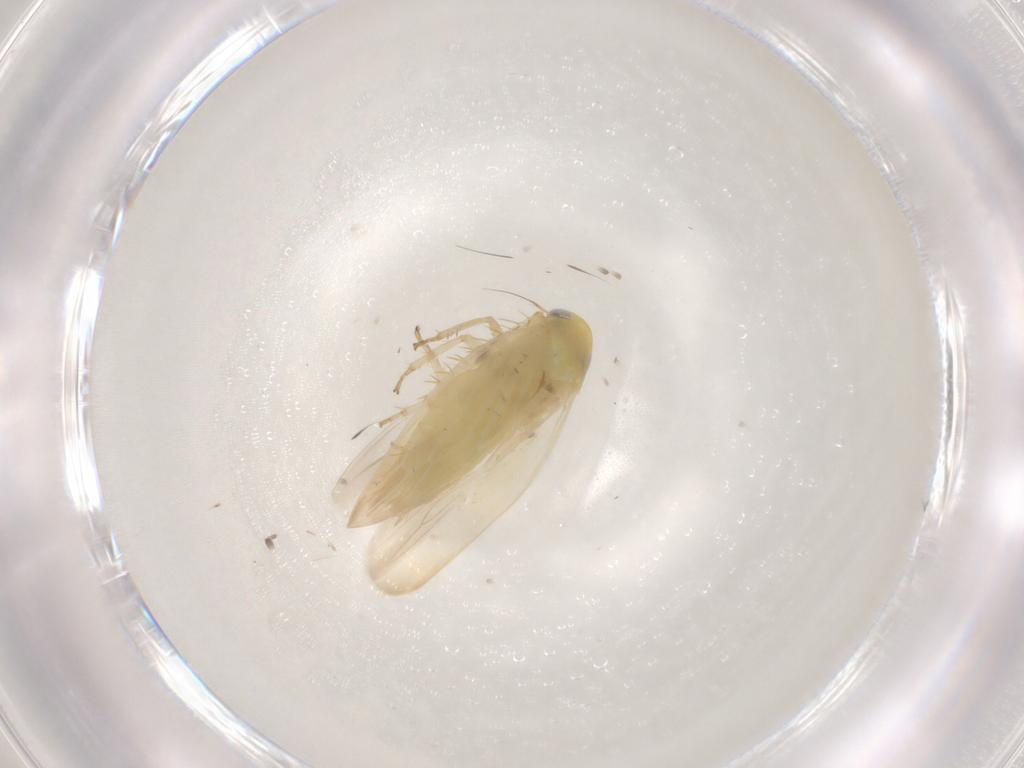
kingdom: Animalia
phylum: Arthropoda
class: Insecta
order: Hemiptera
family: Cicadellidae
